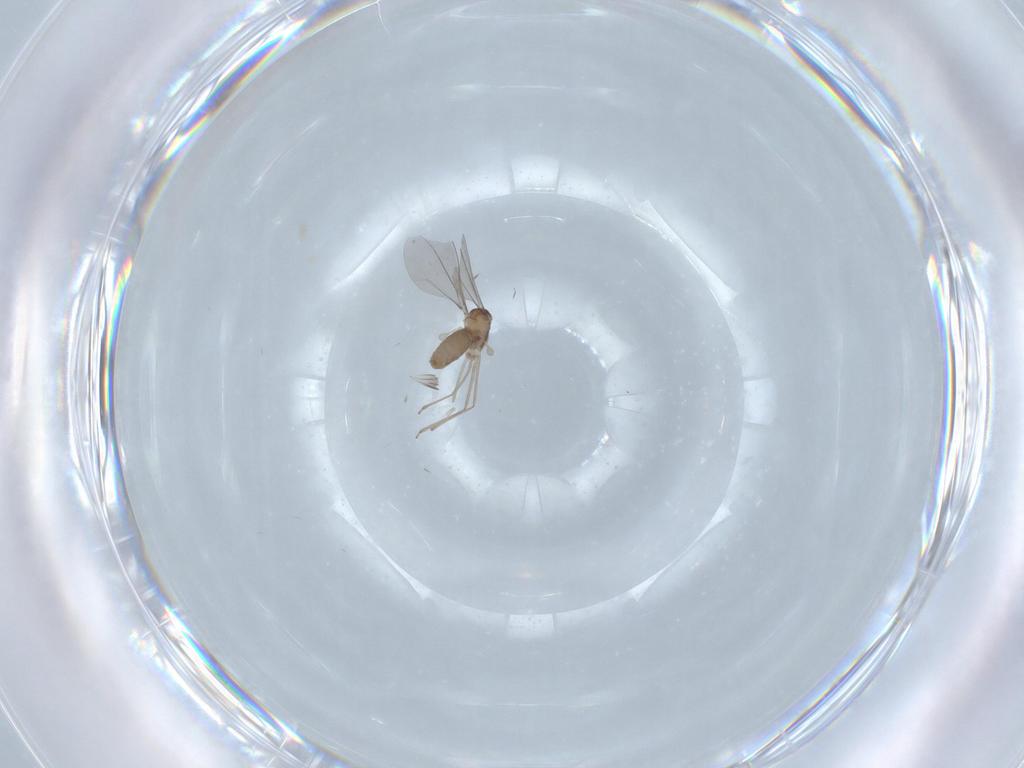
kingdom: Animalia
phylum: Arthropoda
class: Insecta
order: Diptera
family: Cecidomyiidae
